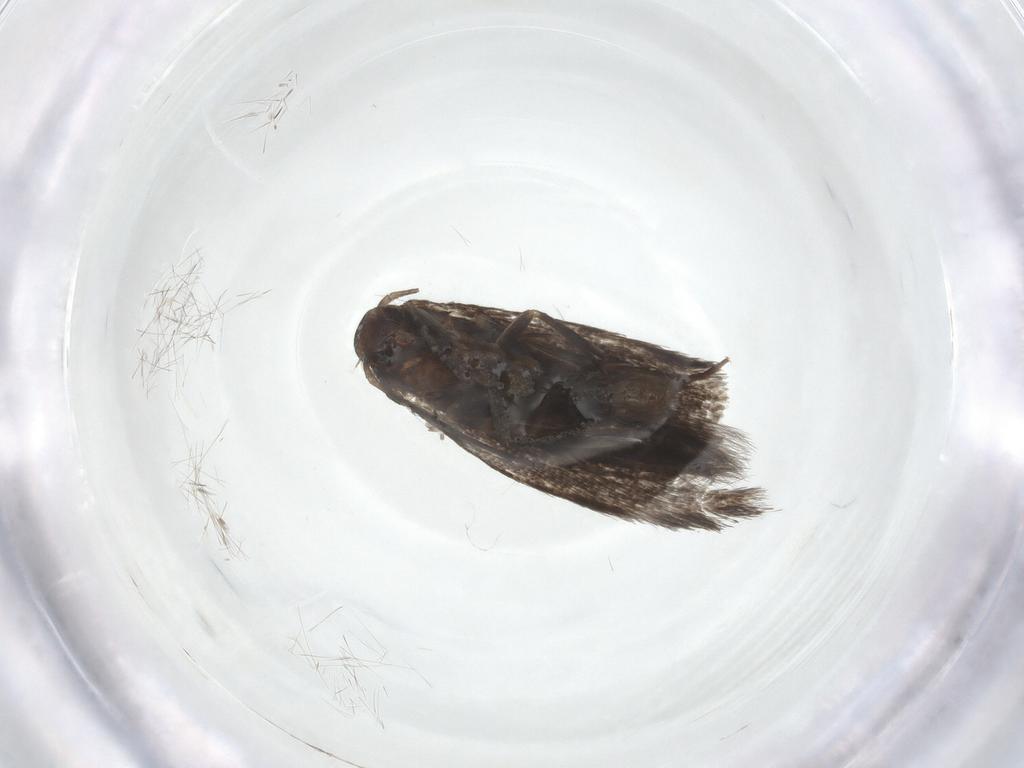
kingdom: Animalia
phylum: Arthropoda
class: Insecta
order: Lepidoptera
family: Elachistidae
